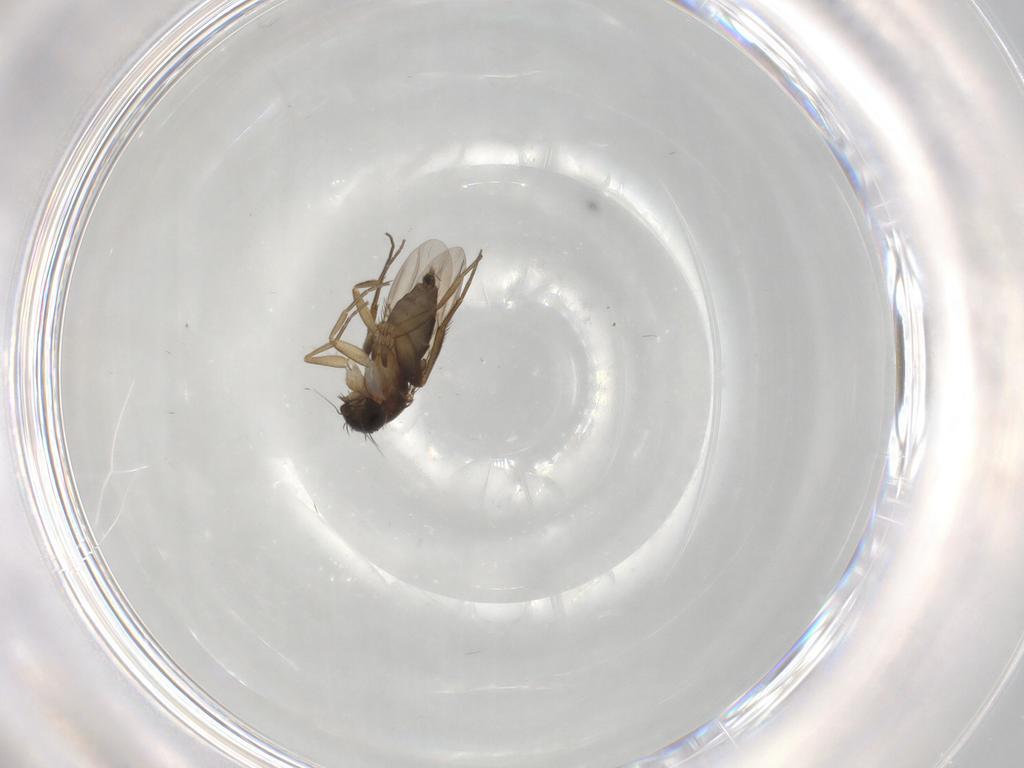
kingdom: Animalia
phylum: Arthropoda
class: Insecta
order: Diptera
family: Phoridae
